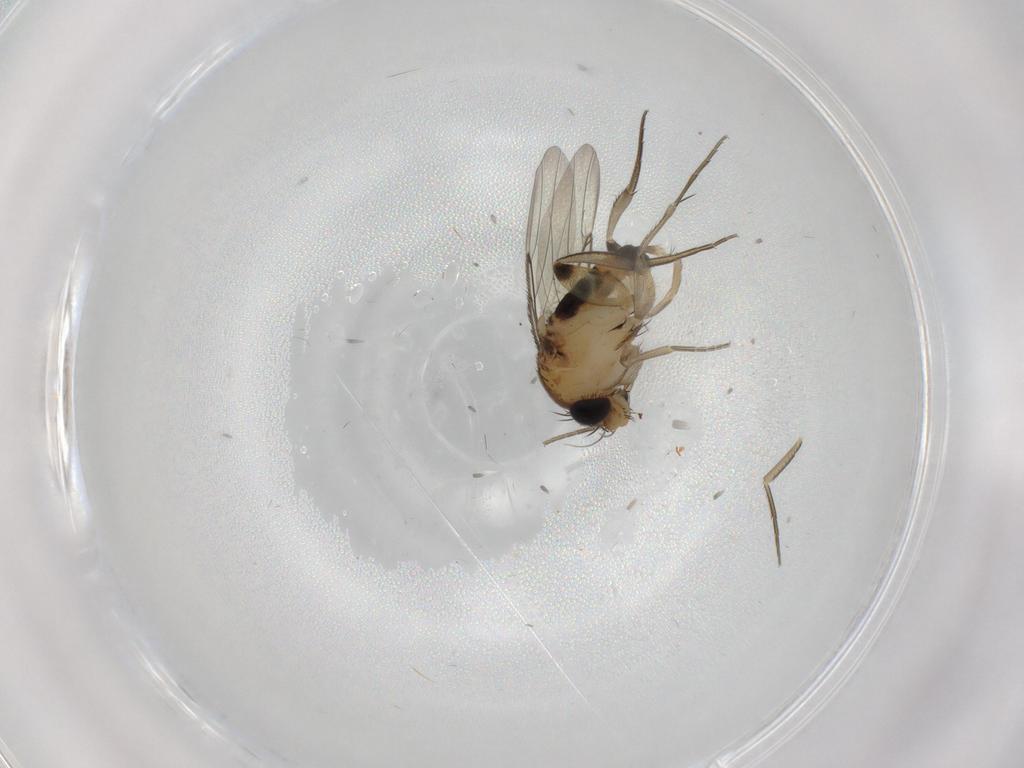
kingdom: Animalia
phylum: Arthropoda
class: Insecta
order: Diptera
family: Phoridae
